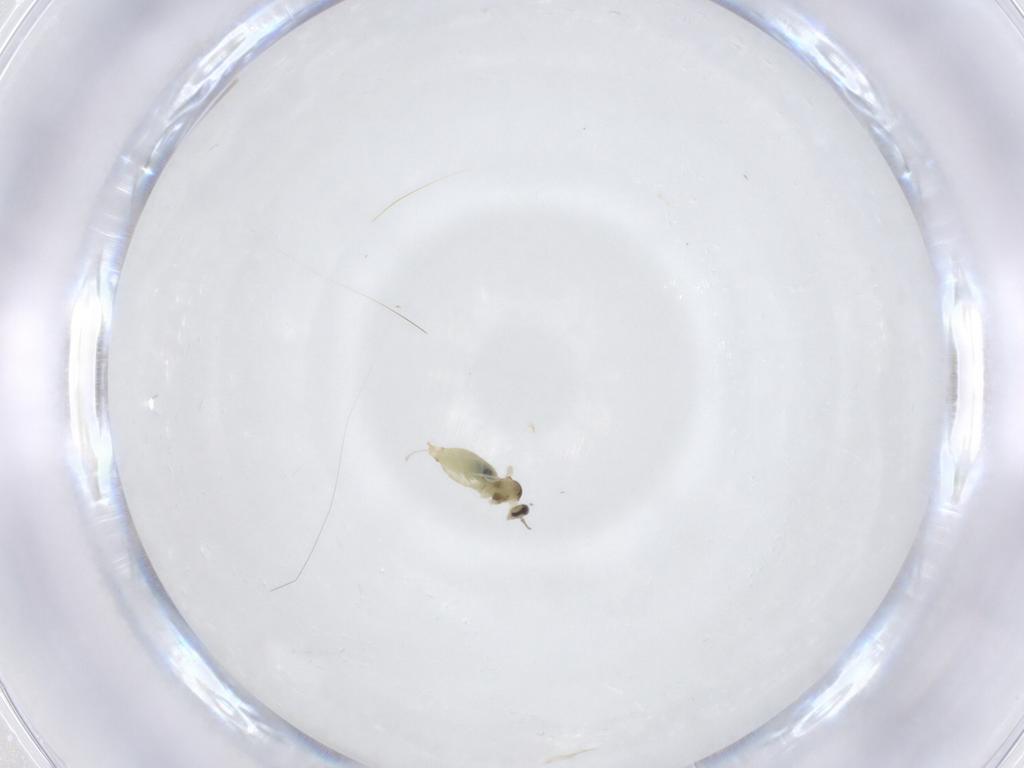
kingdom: Animalia
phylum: Arthropoda
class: Insecta
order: Diptera
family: Cecidomyiidae
